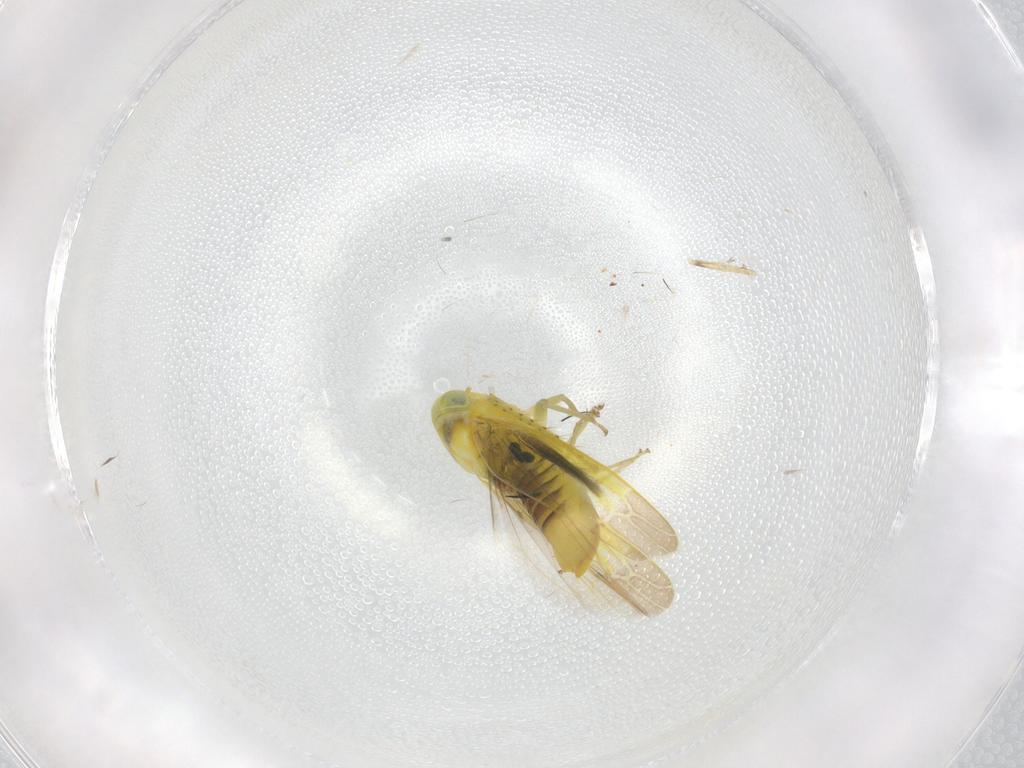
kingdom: Animalia
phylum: Arthropoda
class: Insecta
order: Hemiptera
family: Cicadellidae
